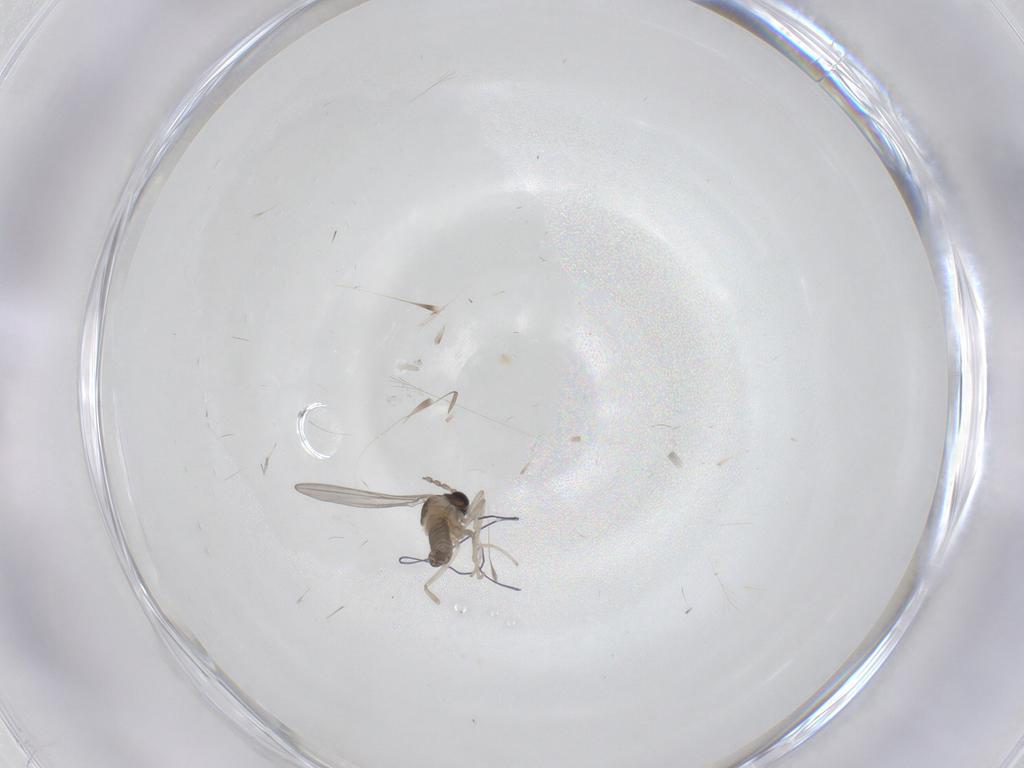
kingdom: Animalia
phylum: Arthropoda
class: Insecta
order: Diptera
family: Cecidomyiidae
